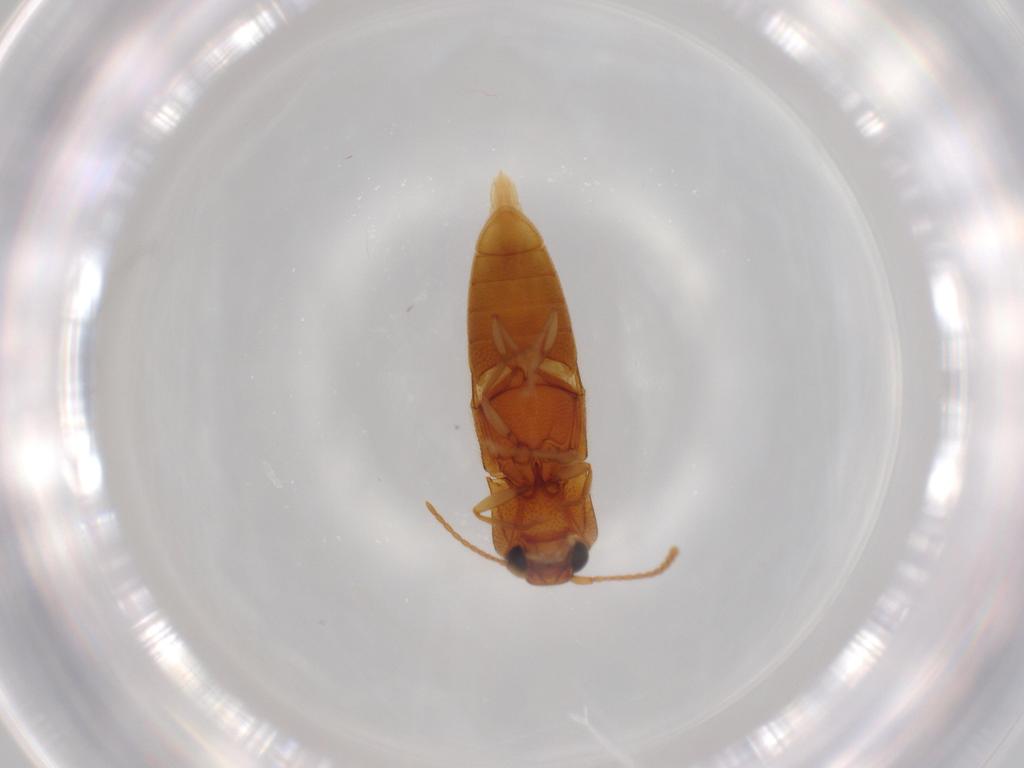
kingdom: Animalia
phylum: Arthropoda
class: Insecta
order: Coleoptera
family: Elateridae
